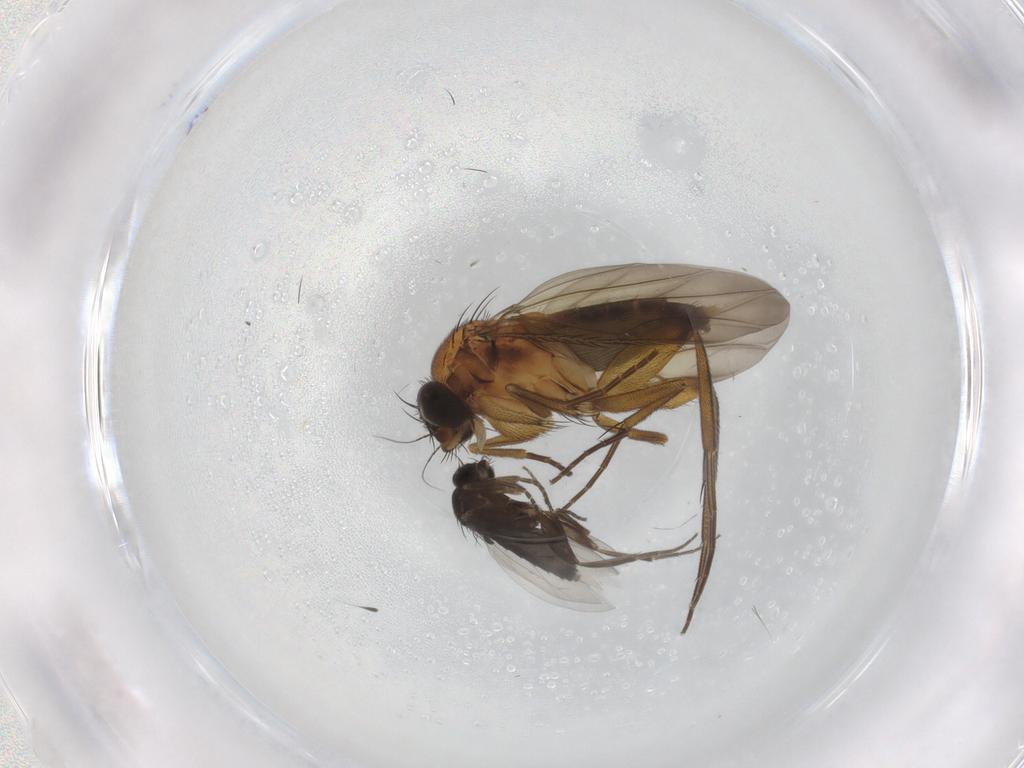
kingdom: Animalia
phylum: Arthropoda
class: Insecta
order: Diptera
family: Phoridae
